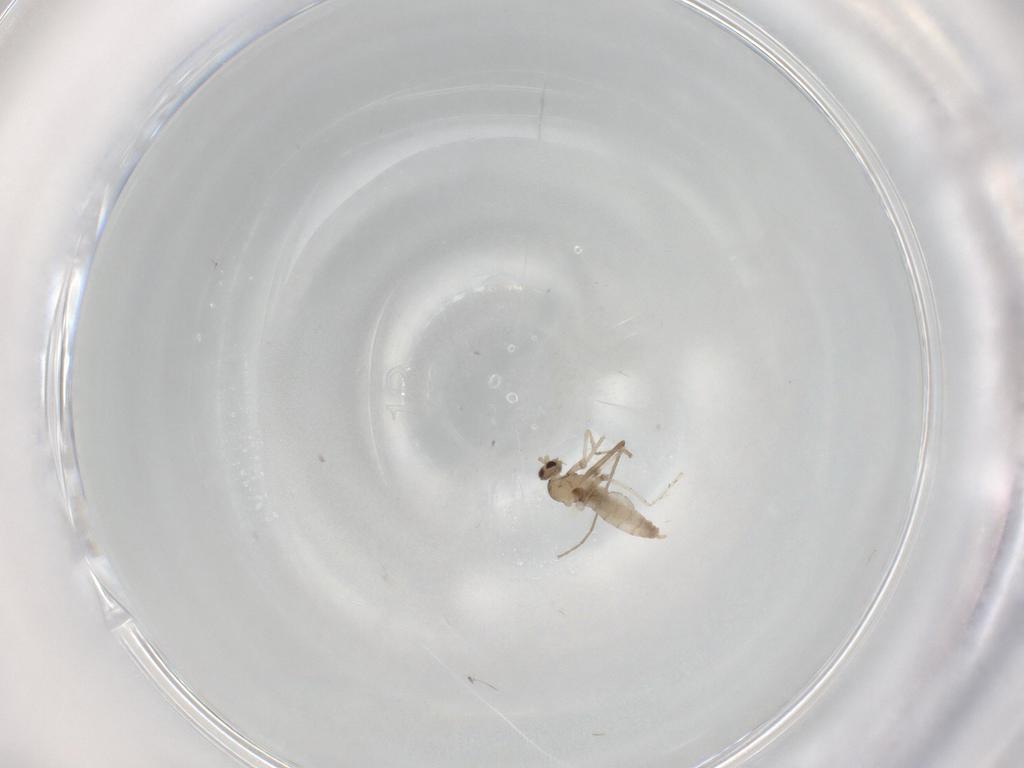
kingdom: Animalia
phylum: Arthropoda
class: Insecta
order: Diptera
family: Cecidomyiidae
